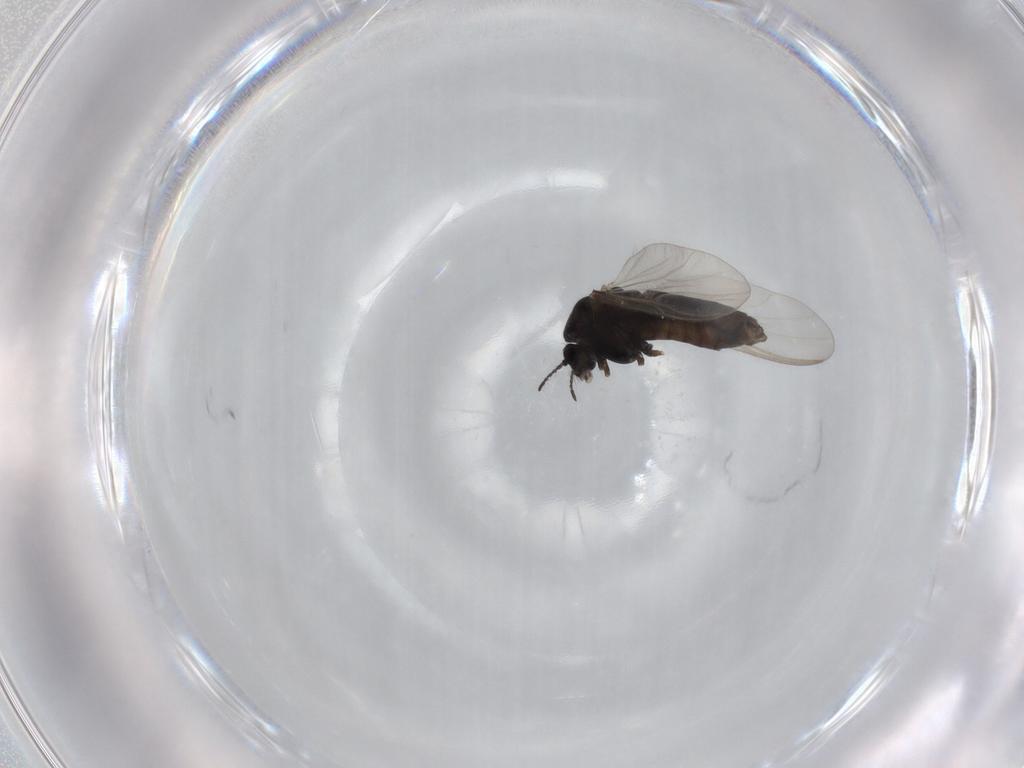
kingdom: Animalia
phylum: Arthropoda
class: Insecta
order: Diptera
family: Chironomidae
